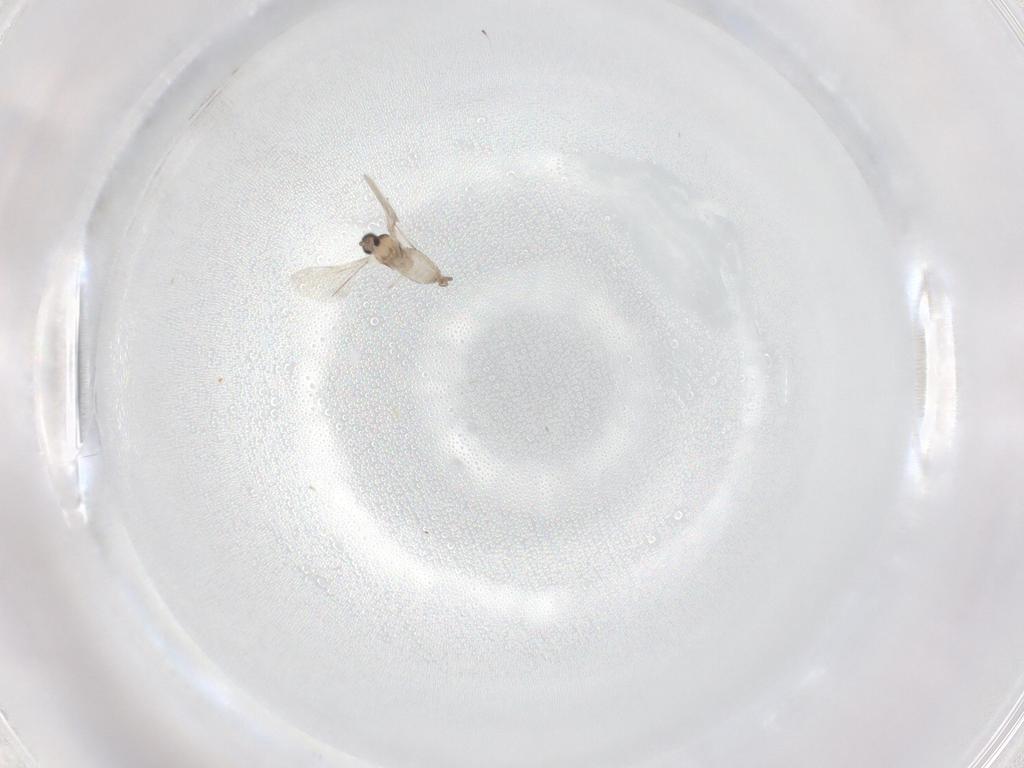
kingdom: Animalia
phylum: Arthropoda
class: Insecta
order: Diptera
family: Cecidomyiidae
